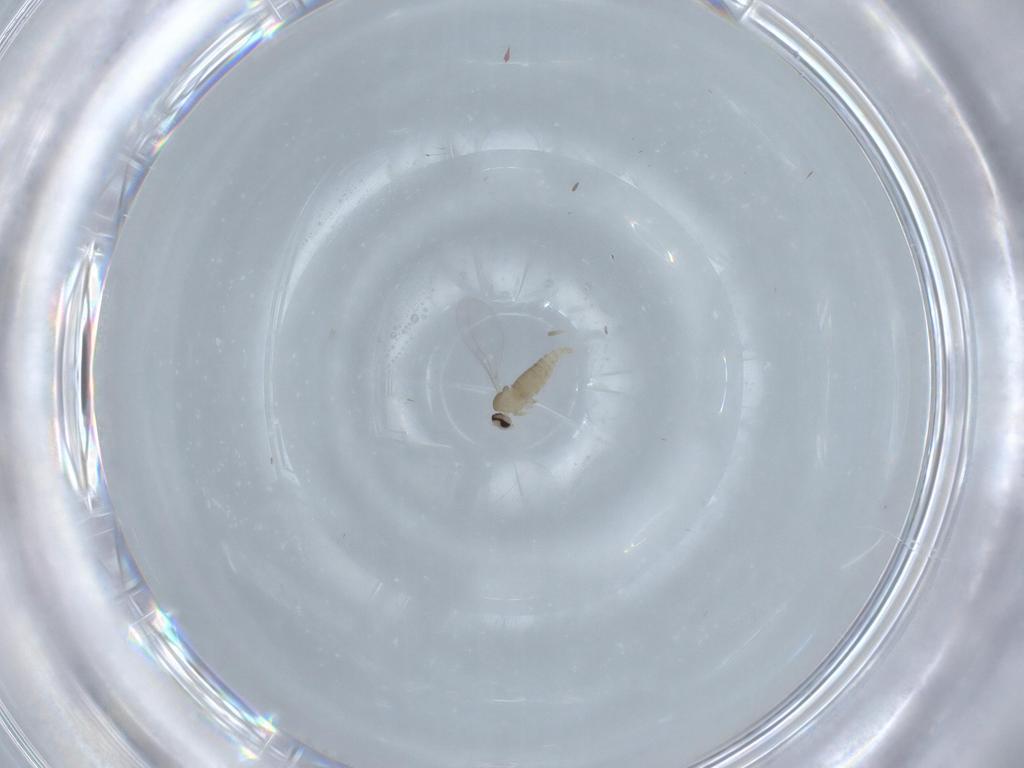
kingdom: Animalia
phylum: Arthropoda
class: Insecta
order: Diptera
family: Cecidomyiidae
